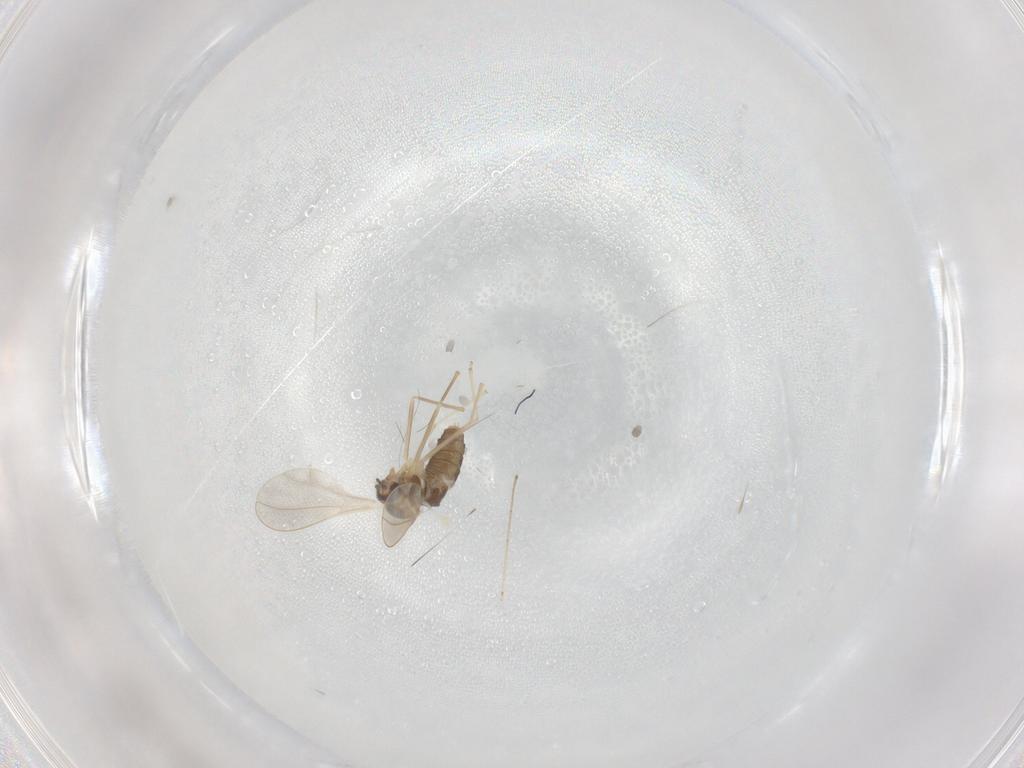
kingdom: Animalia
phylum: Arthropoda
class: Insecta
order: Diptera
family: Cecidomyiidae
